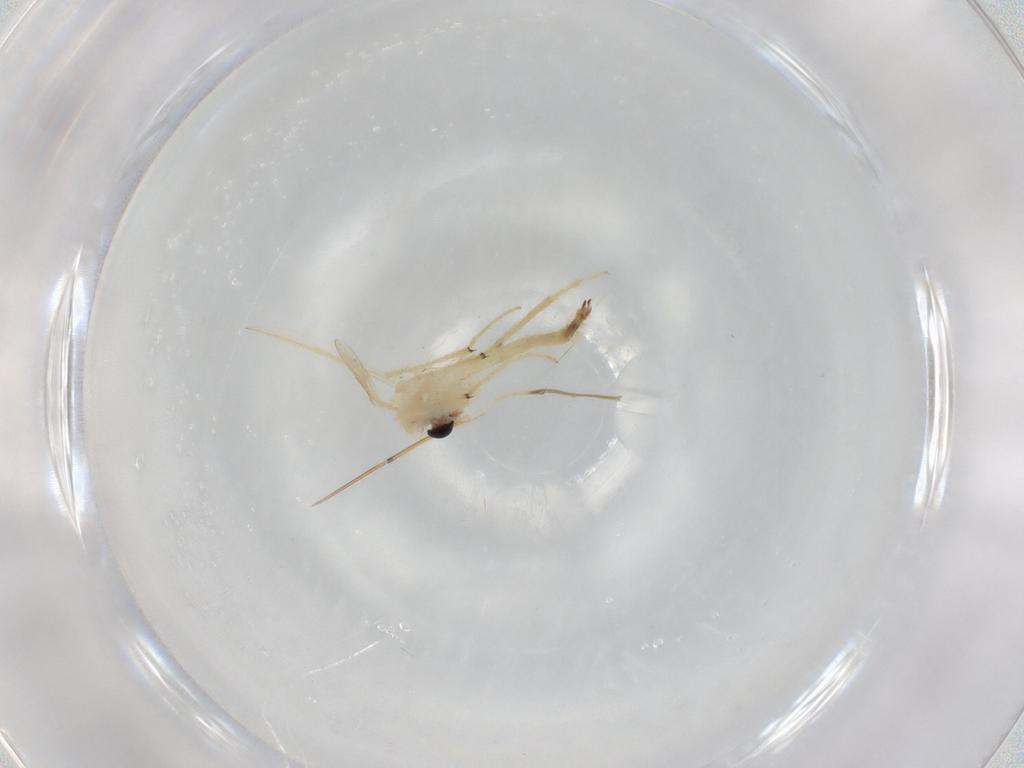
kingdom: Animalia
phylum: Arthropoda
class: Insecta
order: Diptera
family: Chironomidae
